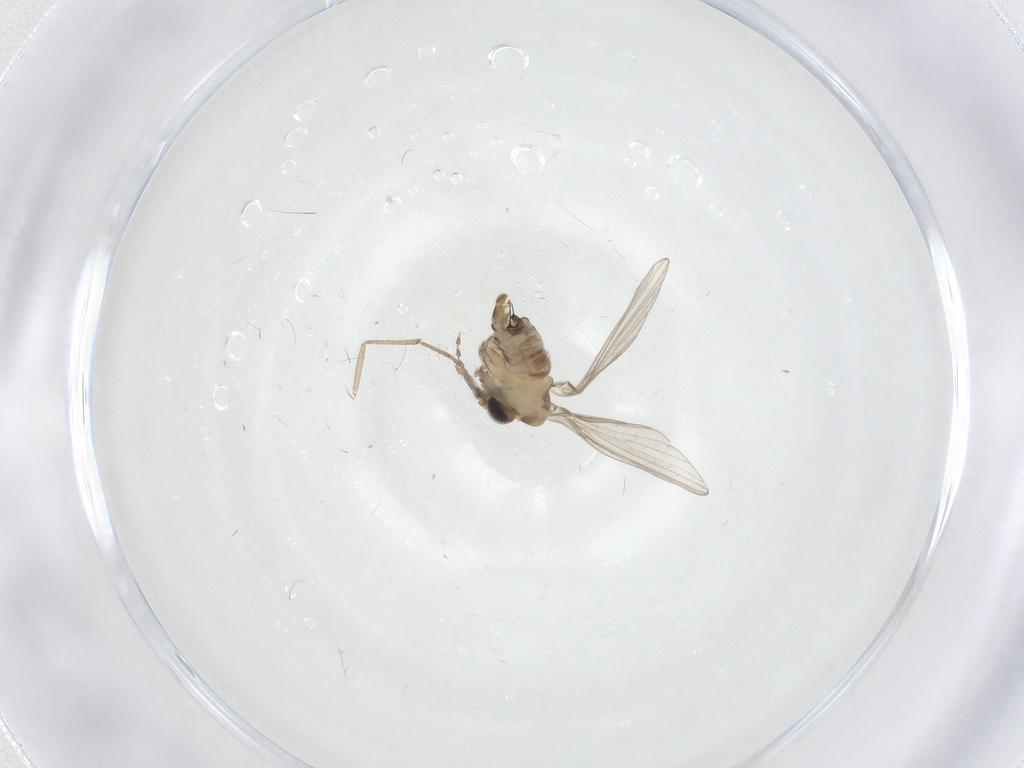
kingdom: Animalia
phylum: Arthropoda
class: Insecta
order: Diptera
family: Psychodidae
